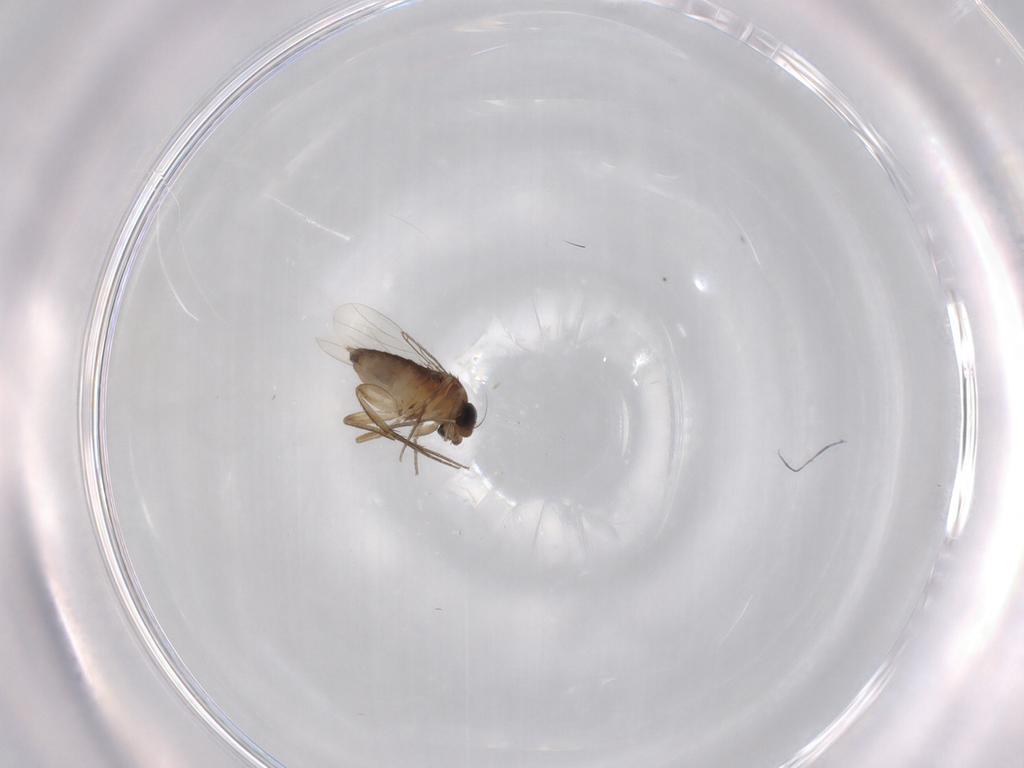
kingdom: Animalia
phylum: Arthropoda
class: Insecta
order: Diptera
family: Phoridae
